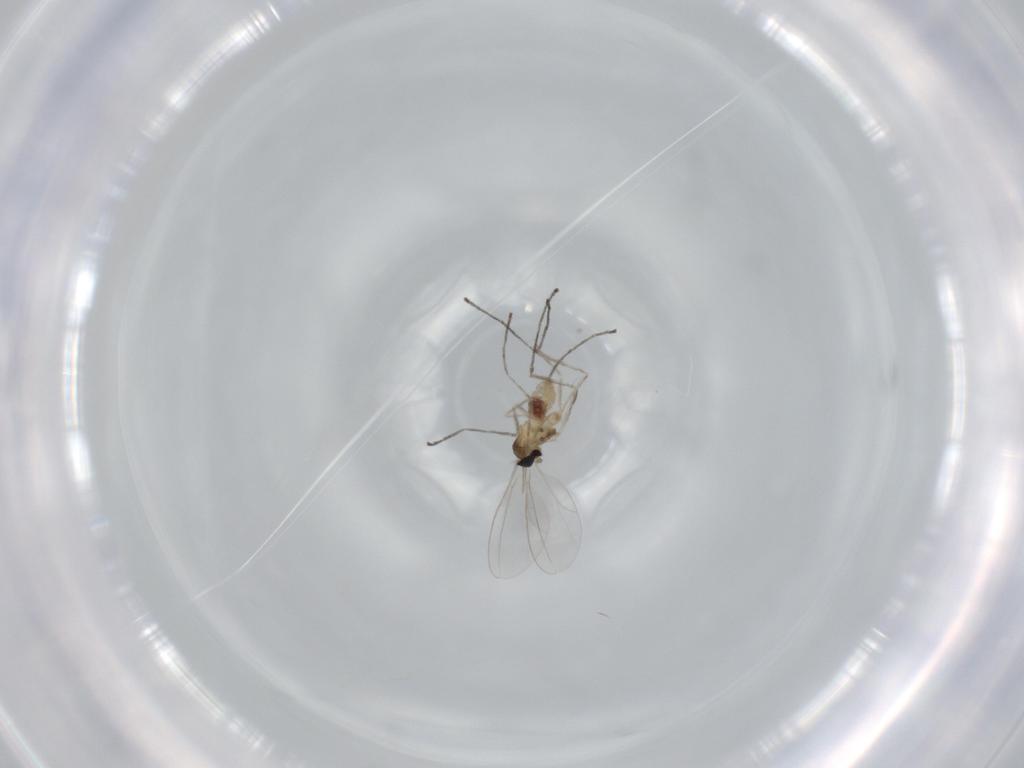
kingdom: Animalia
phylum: Arthropoda
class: Insecta
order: Diptera
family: Cecidomyiidae
